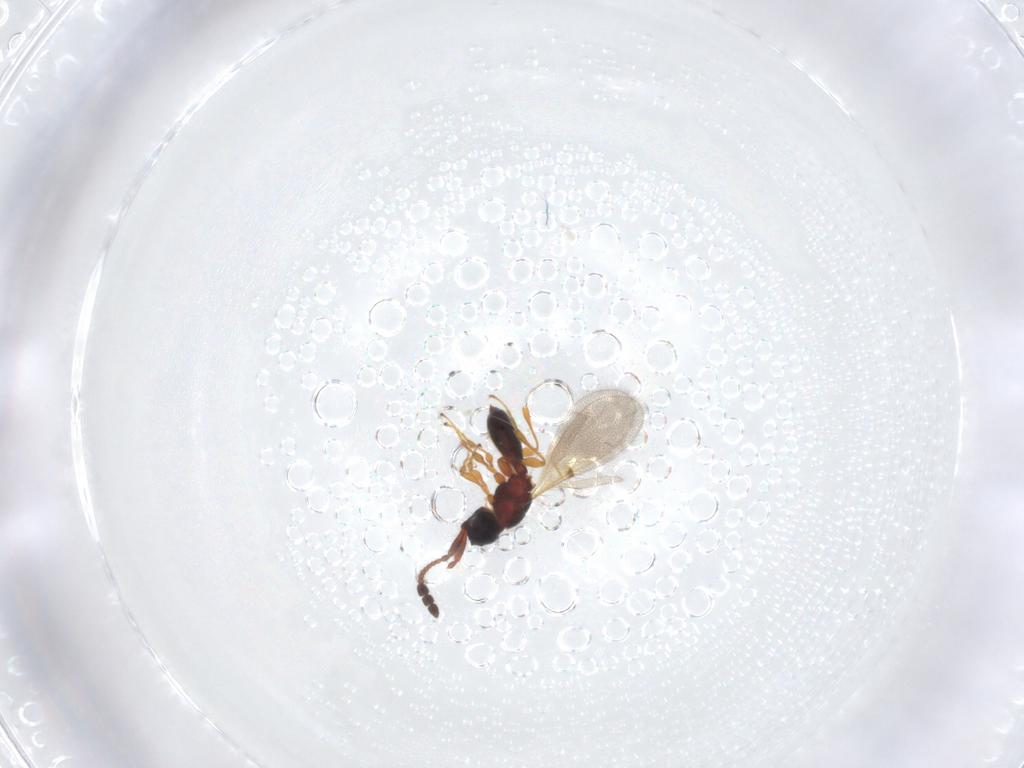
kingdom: Animalia
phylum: Arthropoda
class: Insecta
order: Hymenoptera
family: Diapriidae
